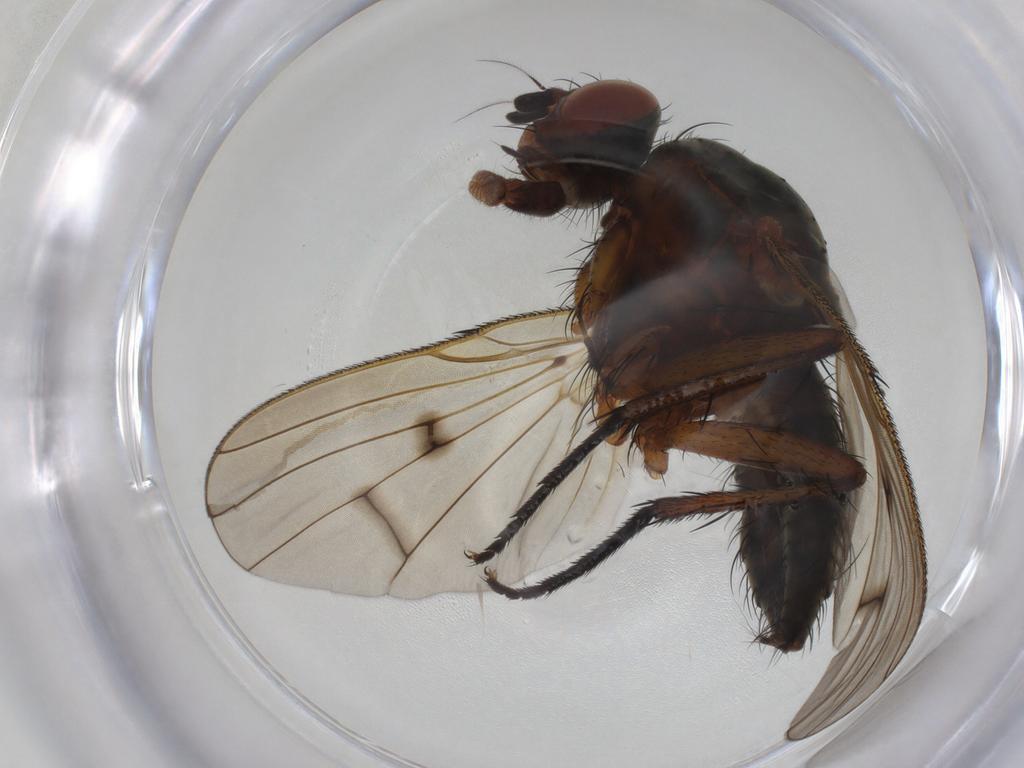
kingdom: Animalia
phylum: Arthropoda
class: Insecta
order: Diptera
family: Anthomyiidae
